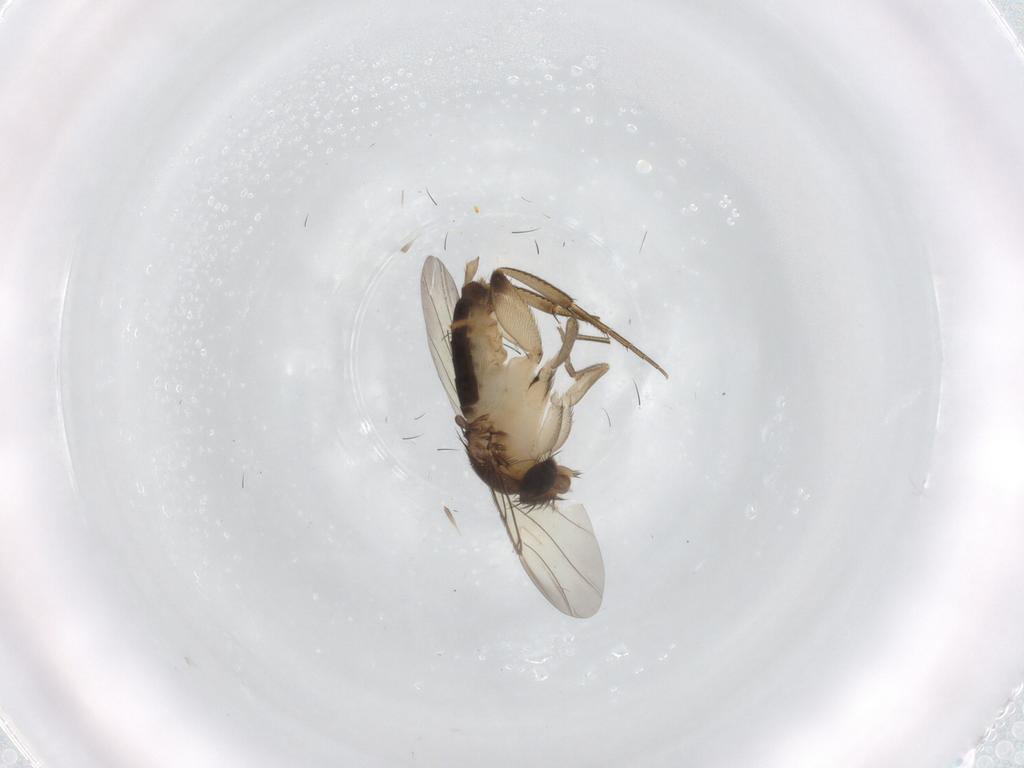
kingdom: Animalia
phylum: Arthropoda
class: Insecta
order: Diptera
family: Phoridae
